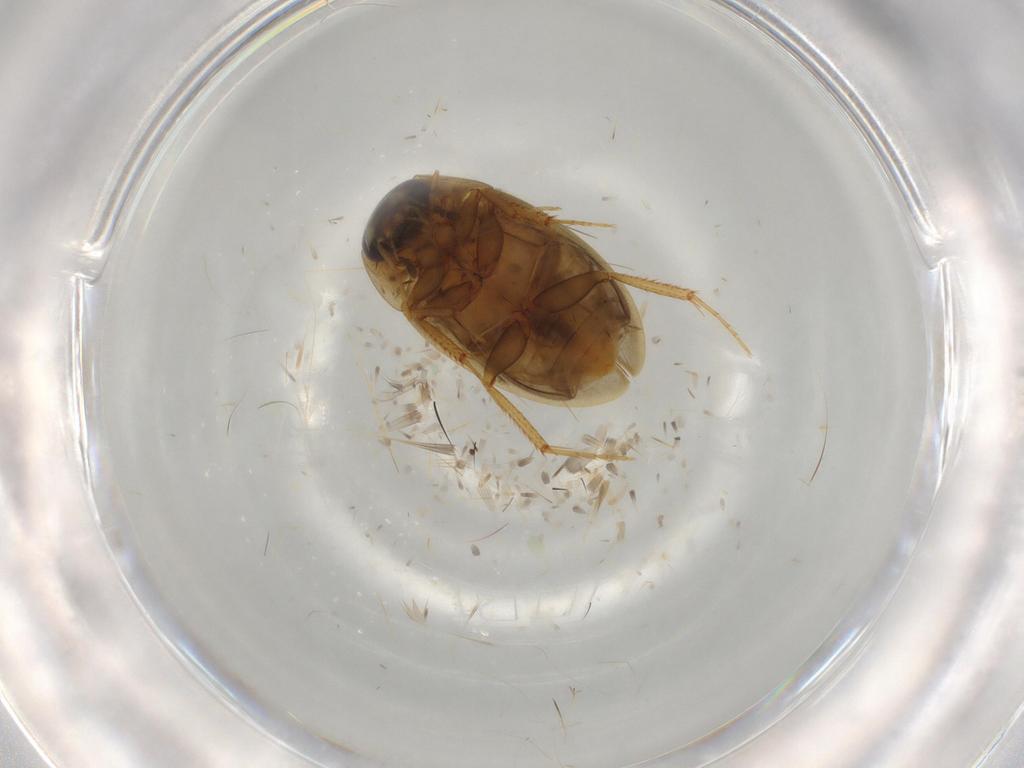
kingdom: Animalia
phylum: Arthropoda
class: Insecta
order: Coleoptera
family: Hydrophilidae
